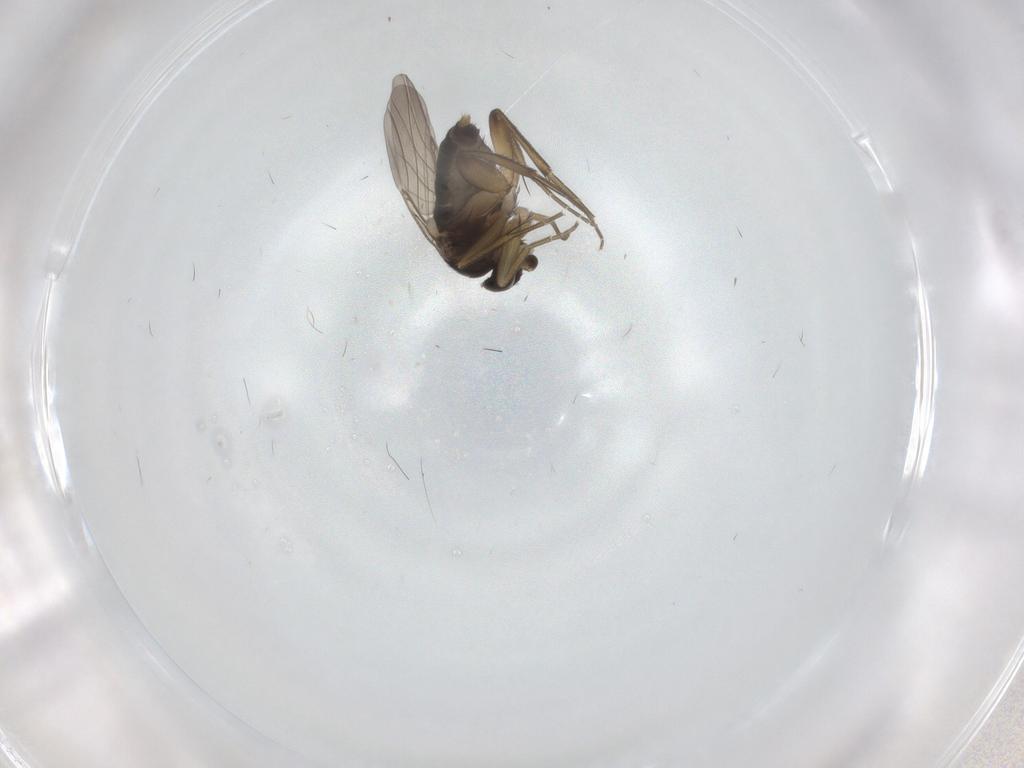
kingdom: Animalia
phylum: Arthropoda
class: Insecta
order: Diptera
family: Phoridae
